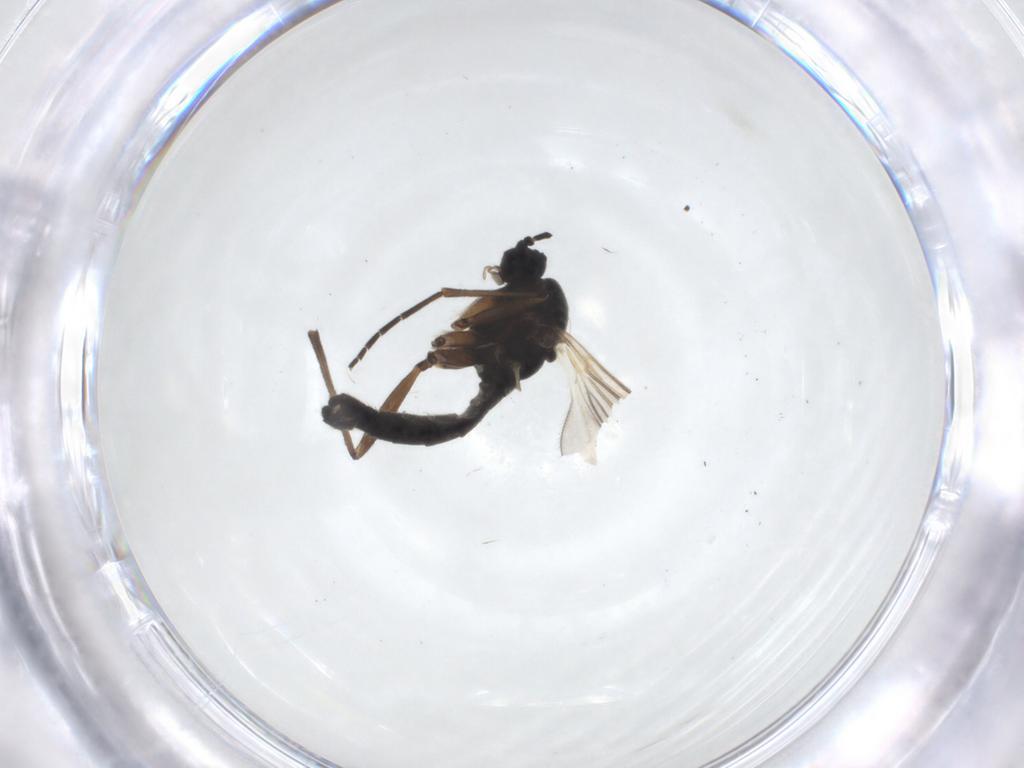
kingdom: Animalia
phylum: Arthropoda
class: Insecta
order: Diptera
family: Sciaridae
